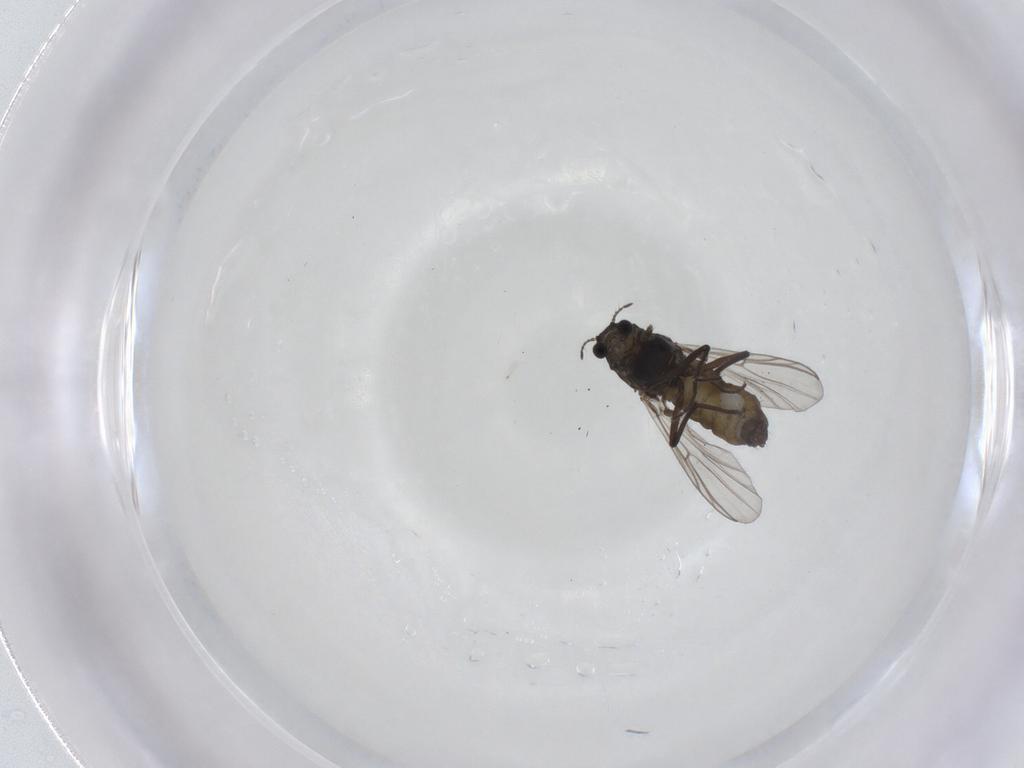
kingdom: Animalia
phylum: Arthropoda
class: Insecta
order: Diptera
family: Chironomidae
